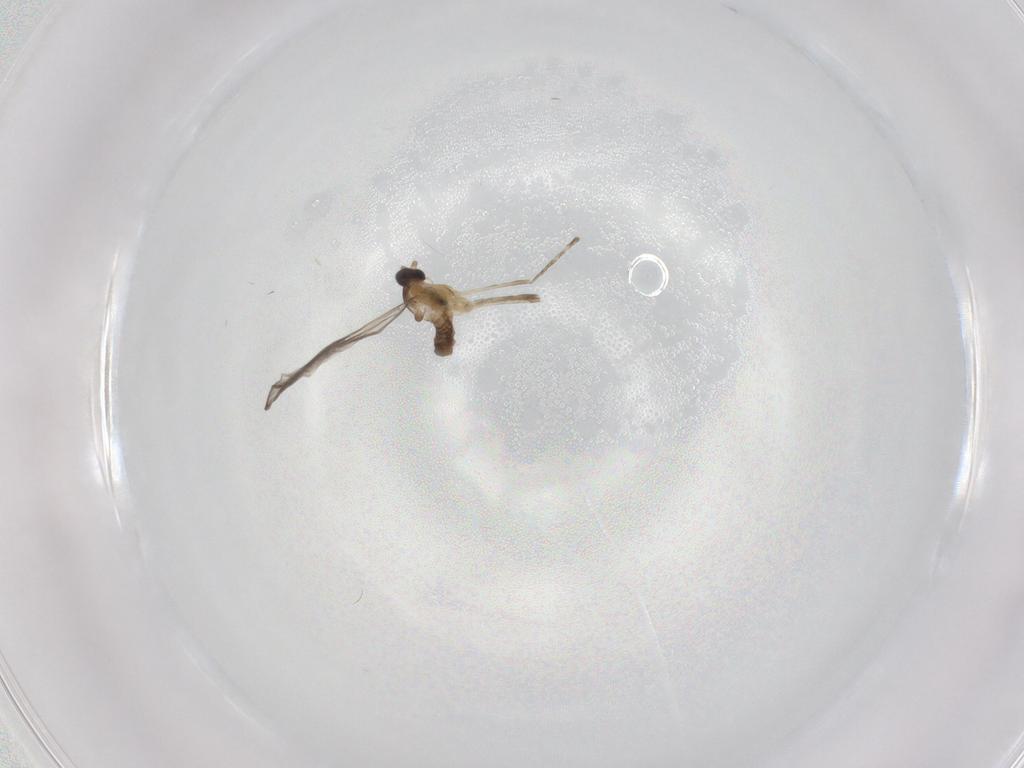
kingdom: Animalia
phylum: Arthropoda
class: Insecta
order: Diptera
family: Cecidomyiidae
